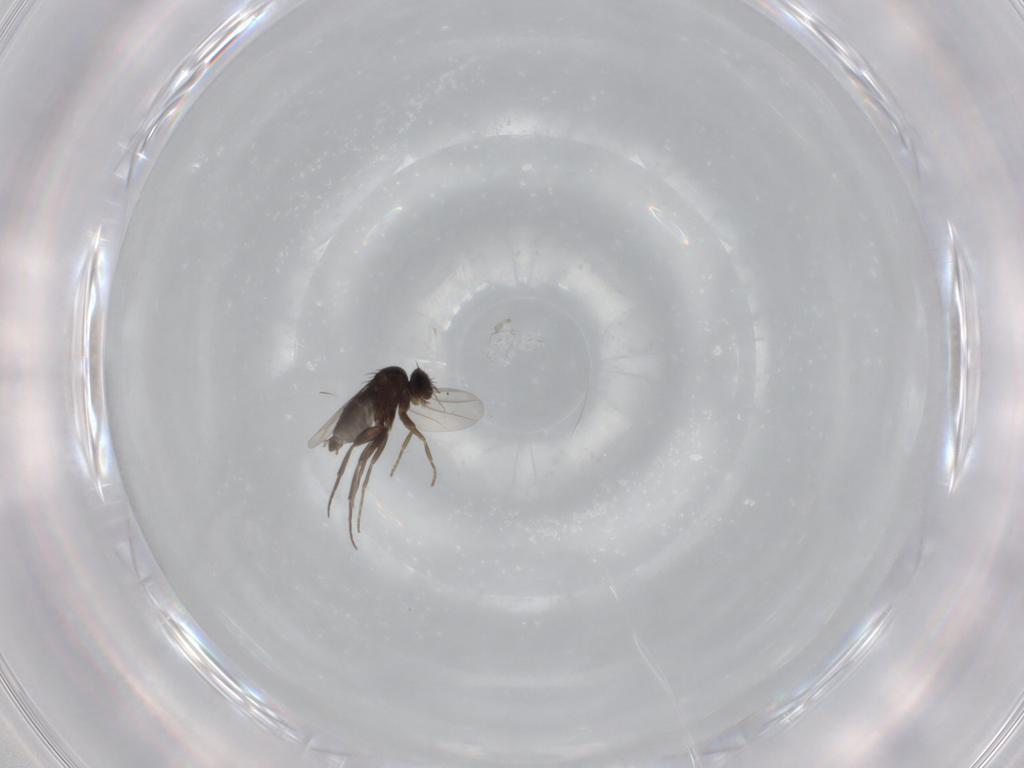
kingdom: Animalia
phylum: Arthropoda
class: Insecta
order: Diptera
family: Phoridae
